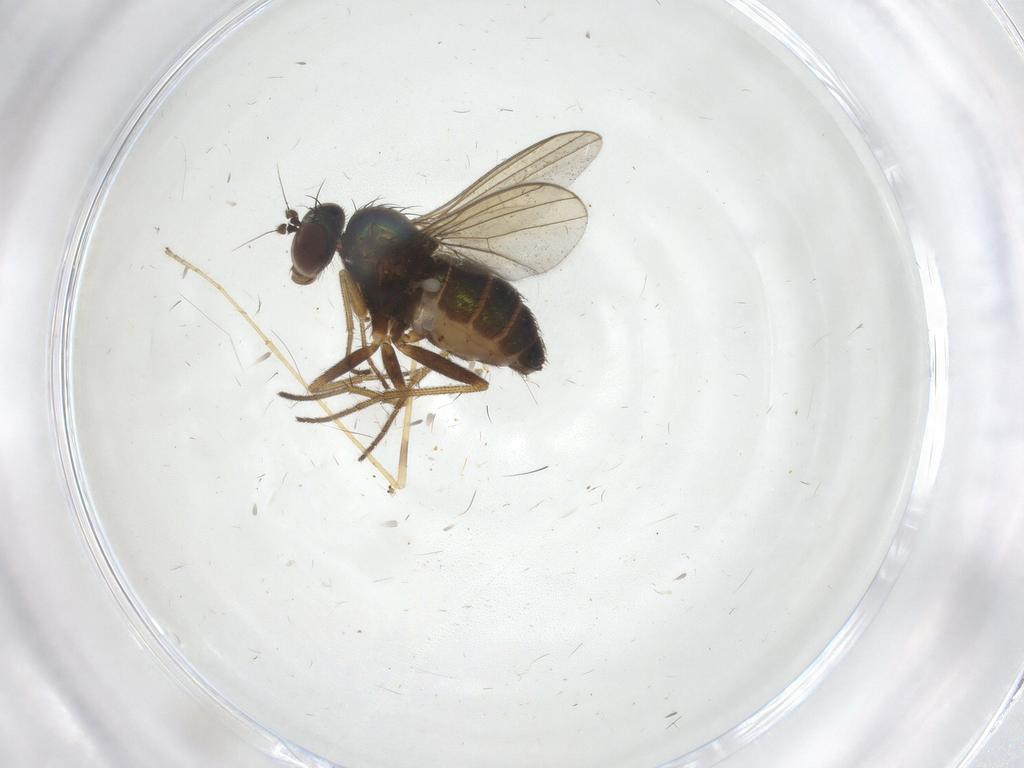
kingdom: Animalia
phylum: Arthropoda
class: Insecta
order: Diptera
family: Dolichopodidae
